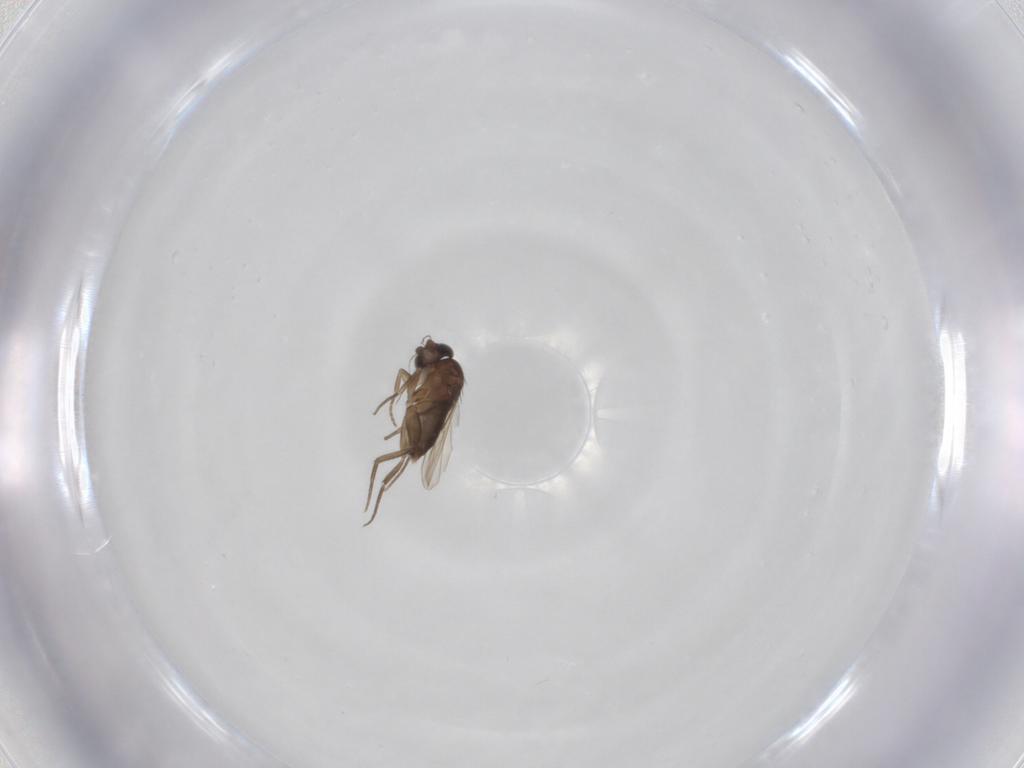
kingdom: Animalia
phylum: Arthropoda
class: Insecta
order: Diptera
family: Phoridae
